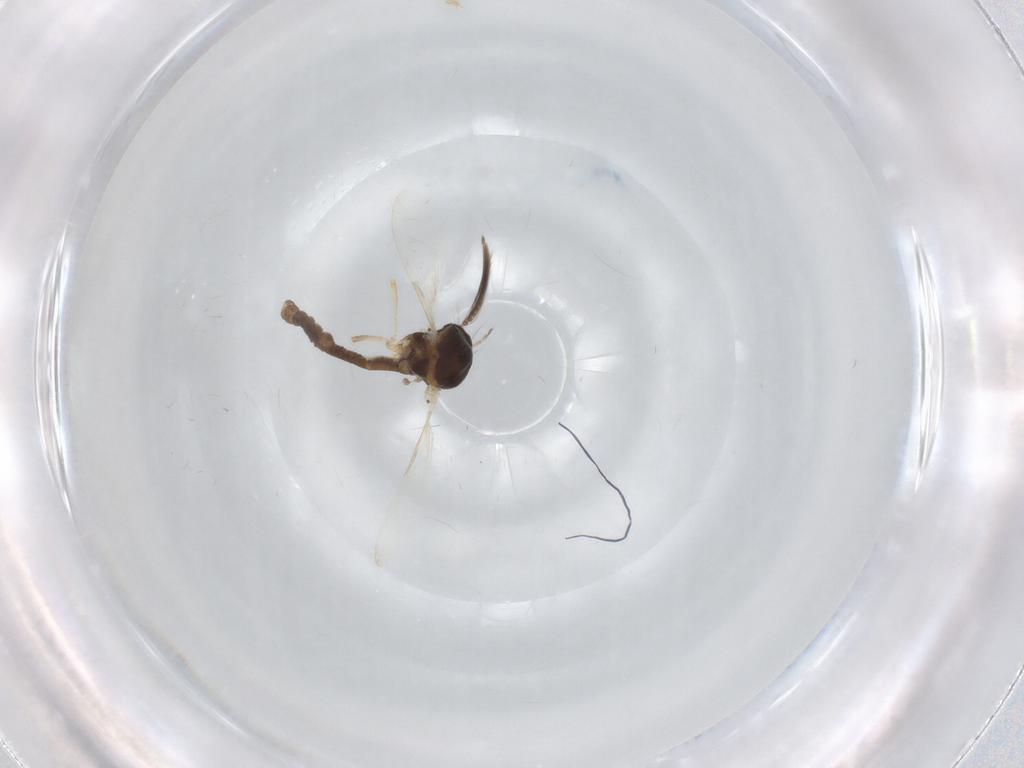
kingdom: Animalia
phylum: Arthropoda
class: Insecta
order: Diptera
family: Ceratopogonidae
